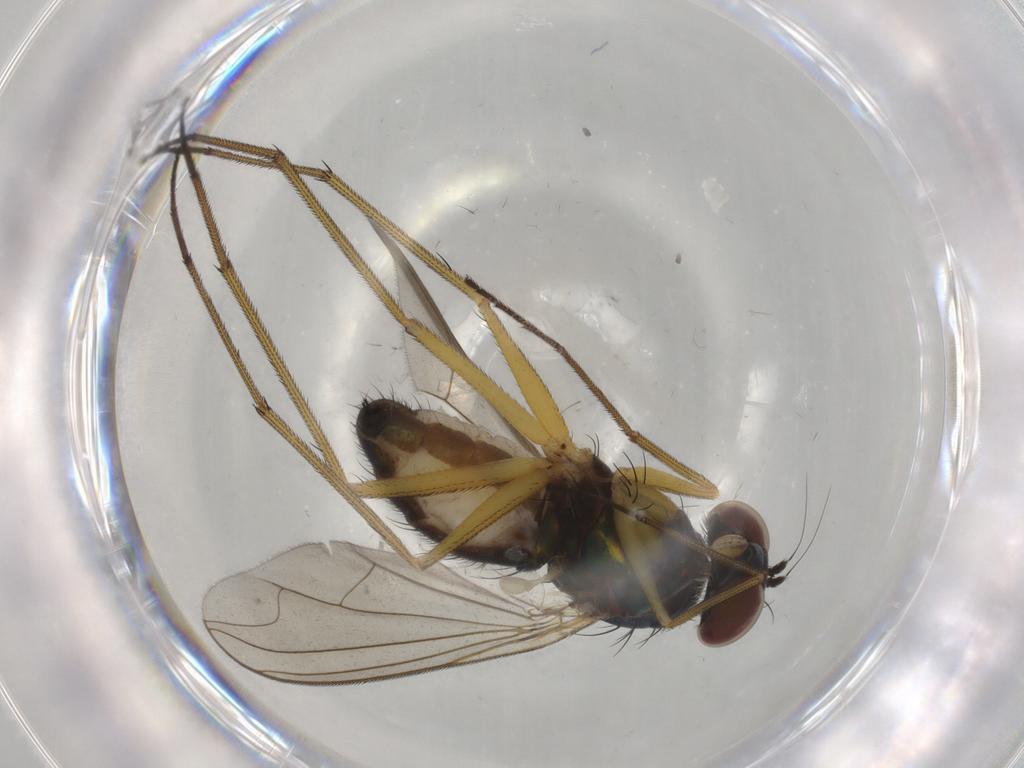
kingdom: Animalia
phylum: Arthropoda
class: Insecta
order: Diptera
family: Dolichopodidae
